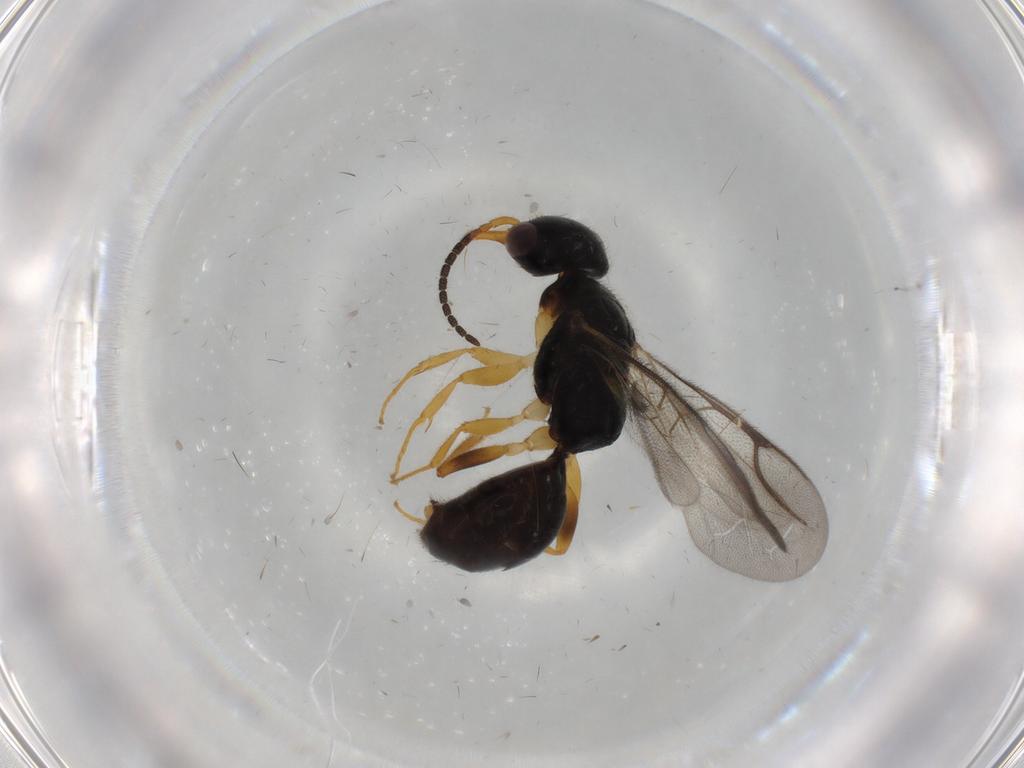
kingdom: Animalia
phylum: Arthropoda
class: Insecta
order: Hymenoptera
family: Bethylidae
